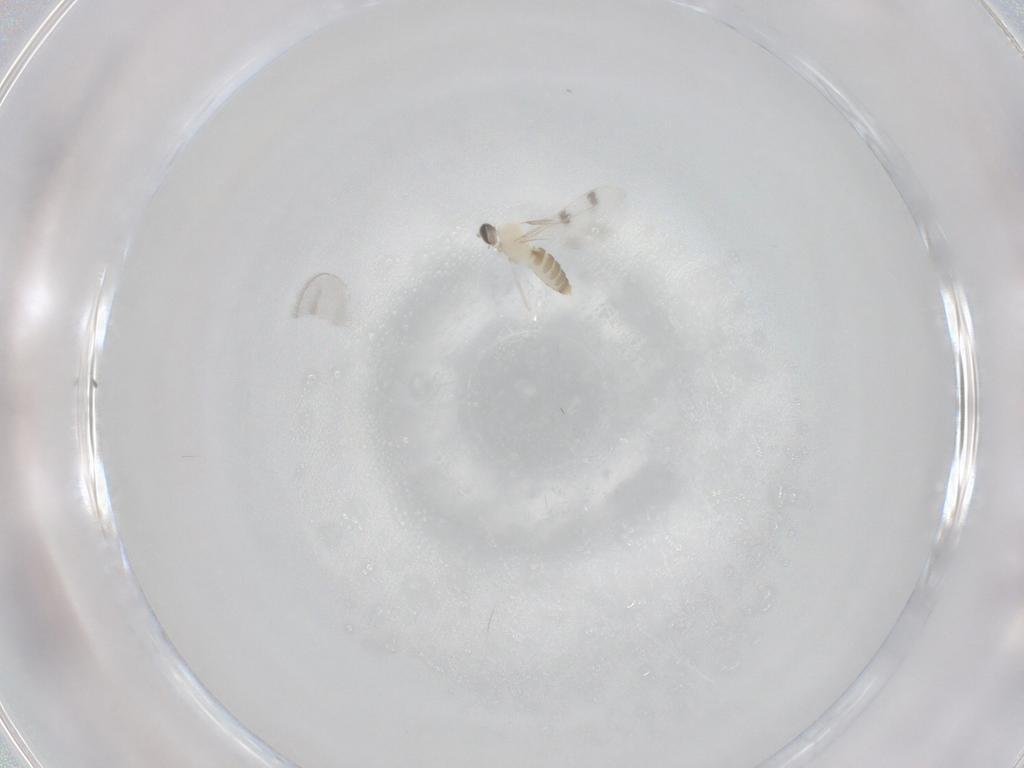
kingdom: Animalia
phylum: Arthropoda
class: Insecta
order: Diptera
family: Cecidomyiidae
